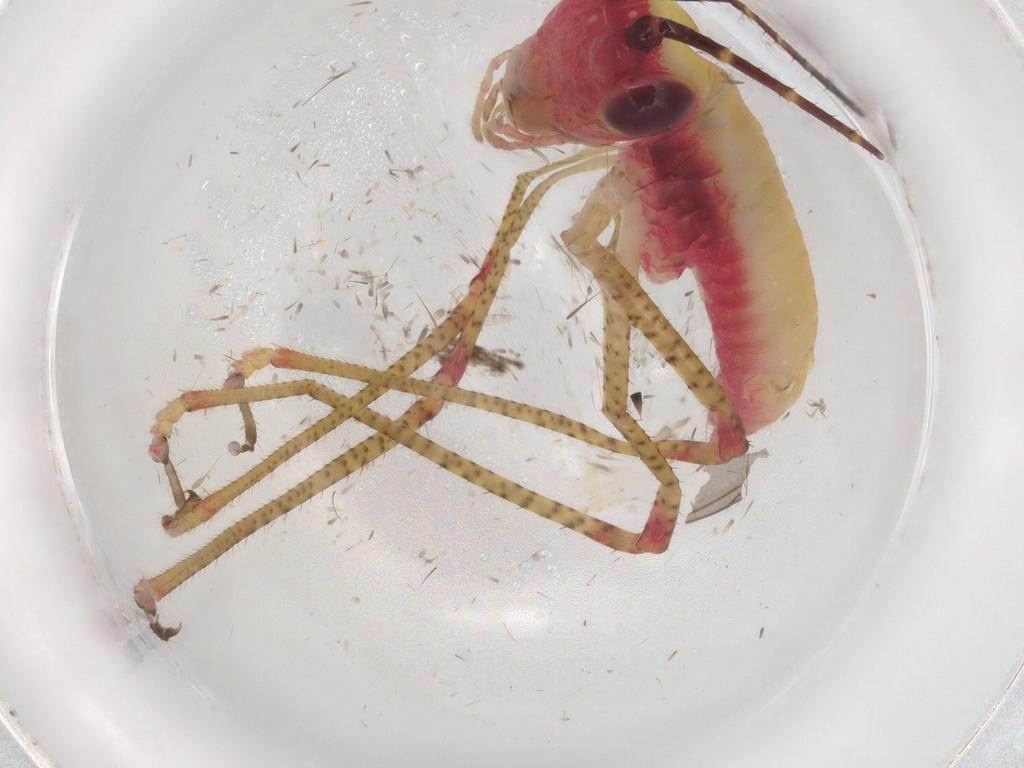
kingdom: Animalia
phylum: Arthropoda
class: Insecta
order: Orthoptera
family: Tettigoniidae
